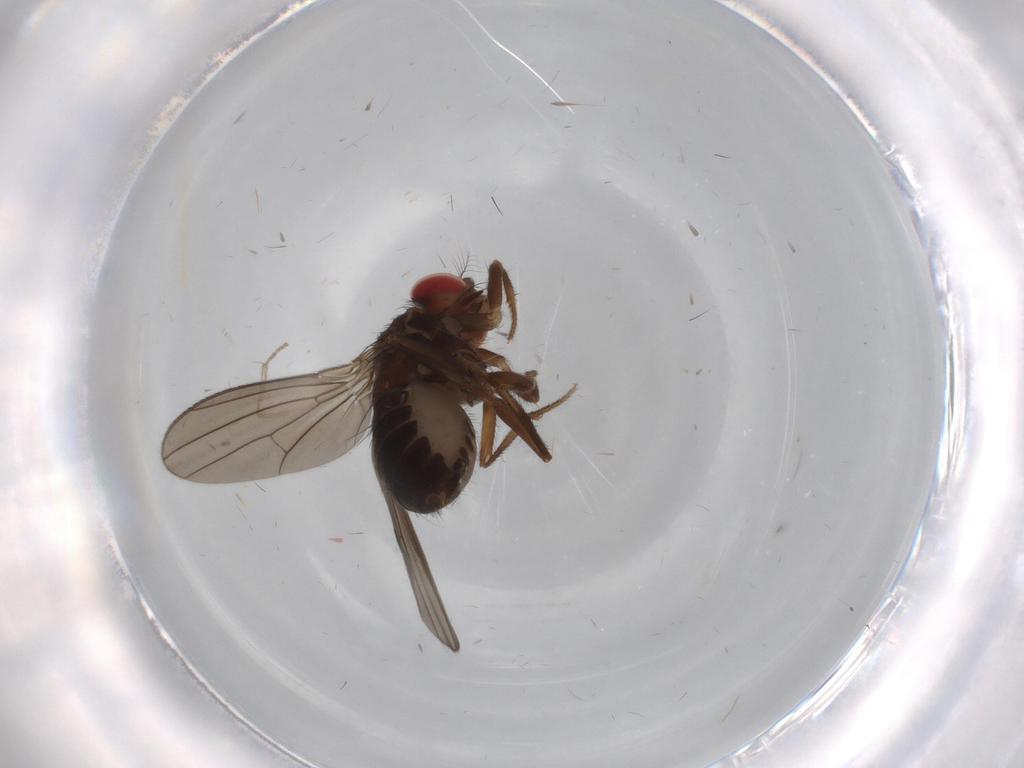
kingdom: Animalia
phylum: Arthropoda
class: Insecta
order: Diptera
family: Drosophilidae
